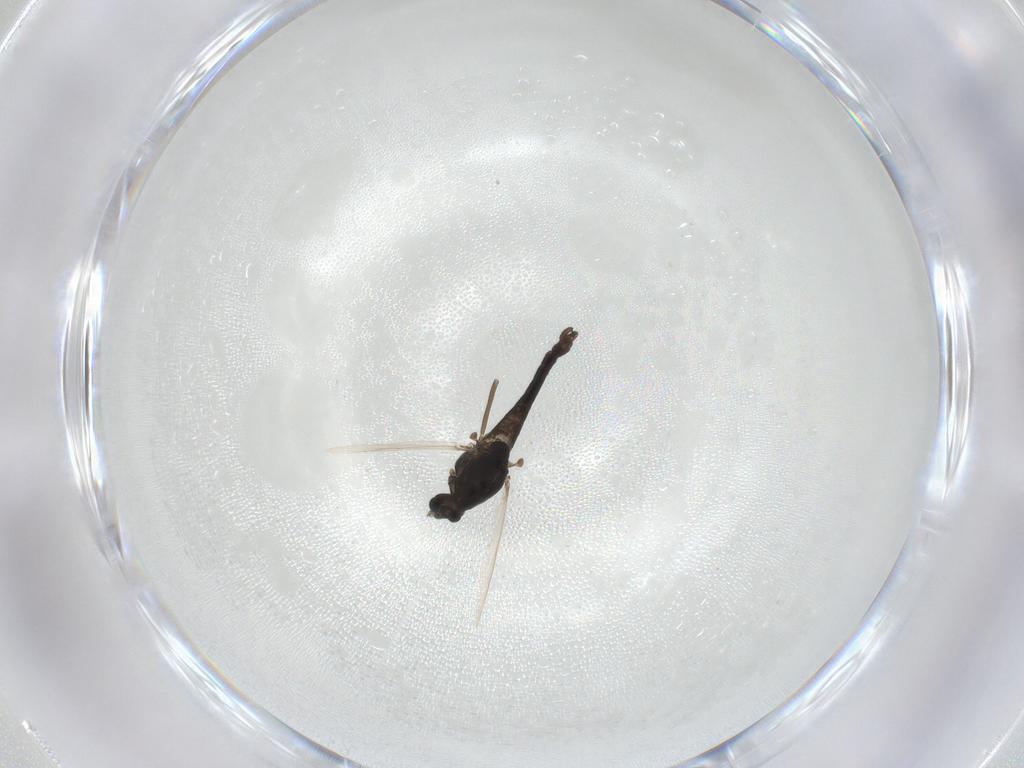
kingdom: Animalia
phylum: Arthropoda
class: Insecta
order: Diptera
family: Chironomidae
